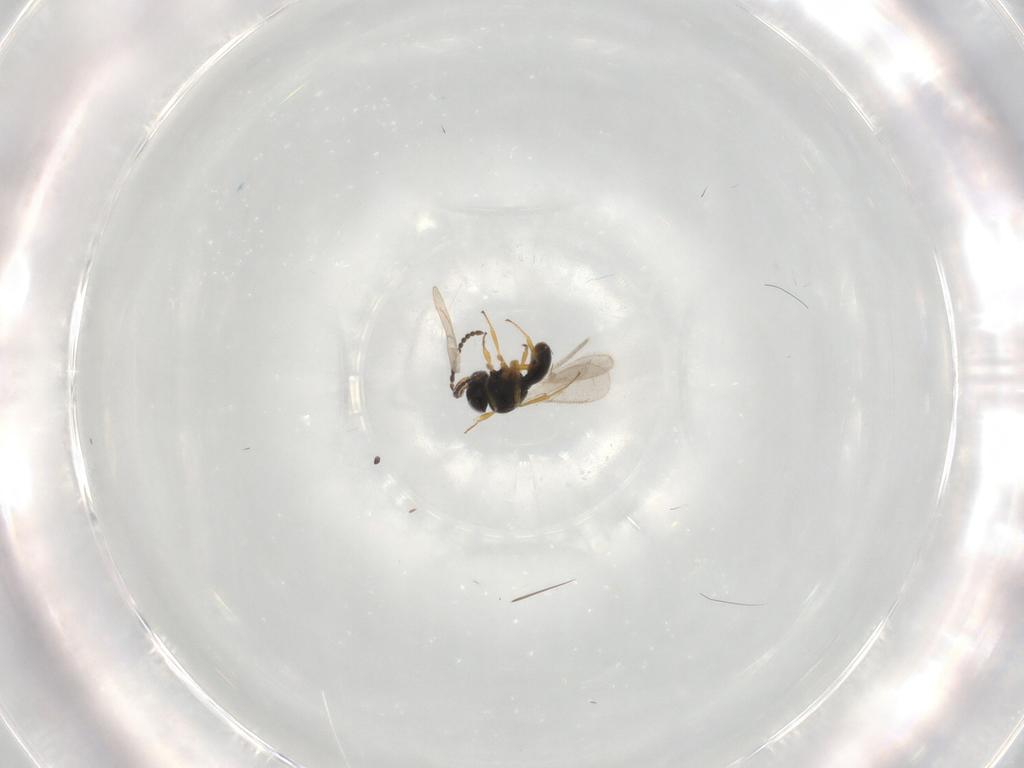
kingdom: Animalia
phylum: Arthropoda
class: Insecta
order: Hymenoptera
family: Scelionidae
